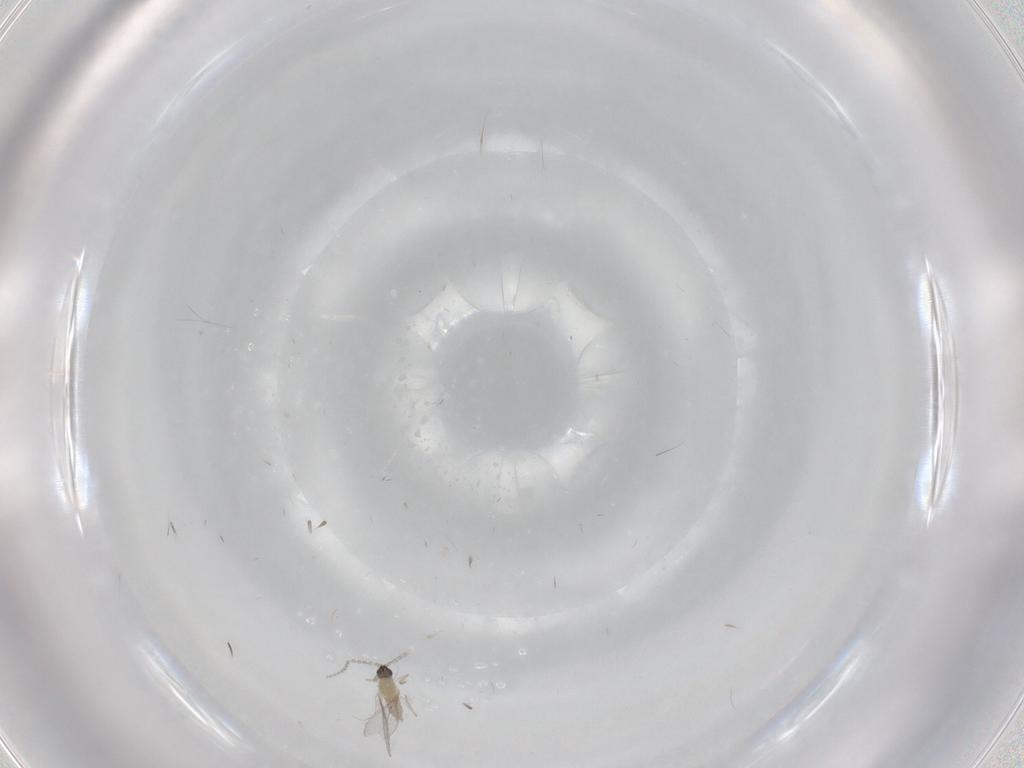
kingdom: Animalia
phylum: Arthropoda
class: Insecta
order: Diptera
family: Cecidomyiidae
